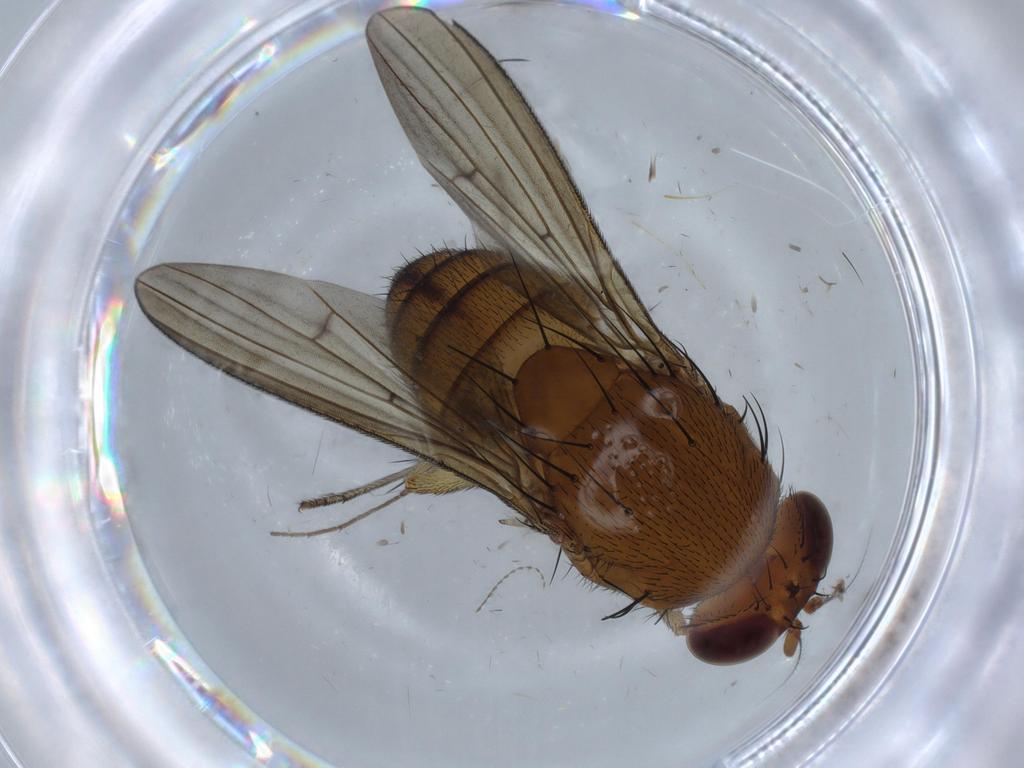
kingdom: Animalia
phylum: Arthropoda
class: Insecta
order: Diptera
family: Limoniidae
